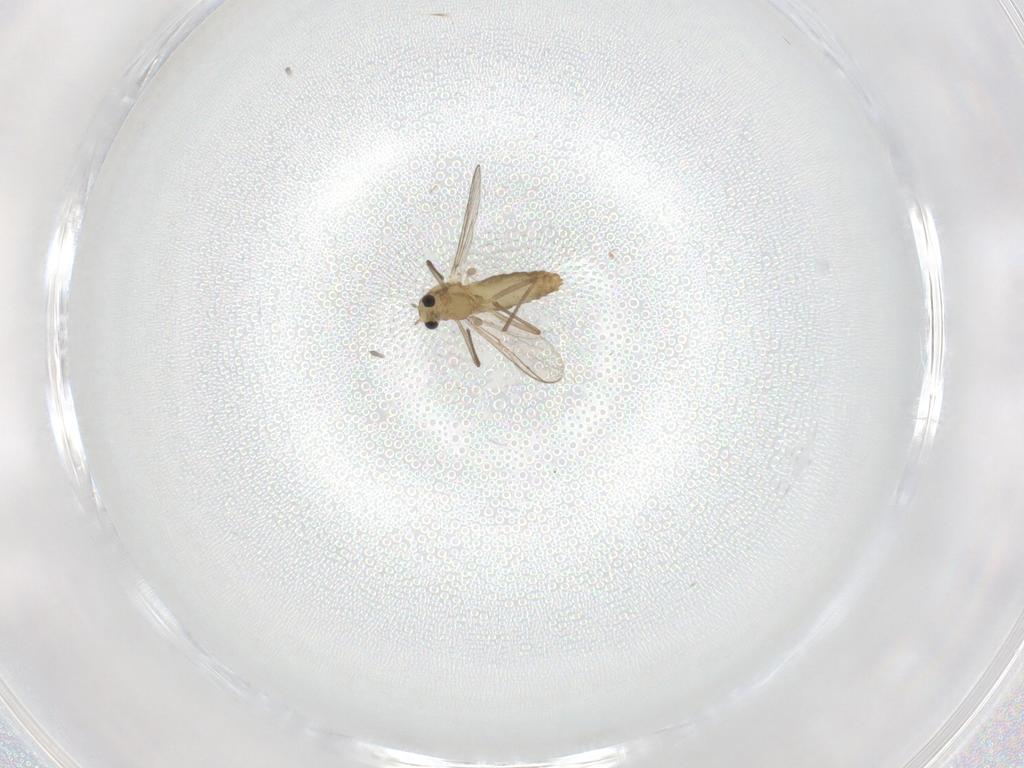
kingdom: Animalia
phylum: Arthropoda
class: Insecta
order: Diptera
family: Chironomidae
